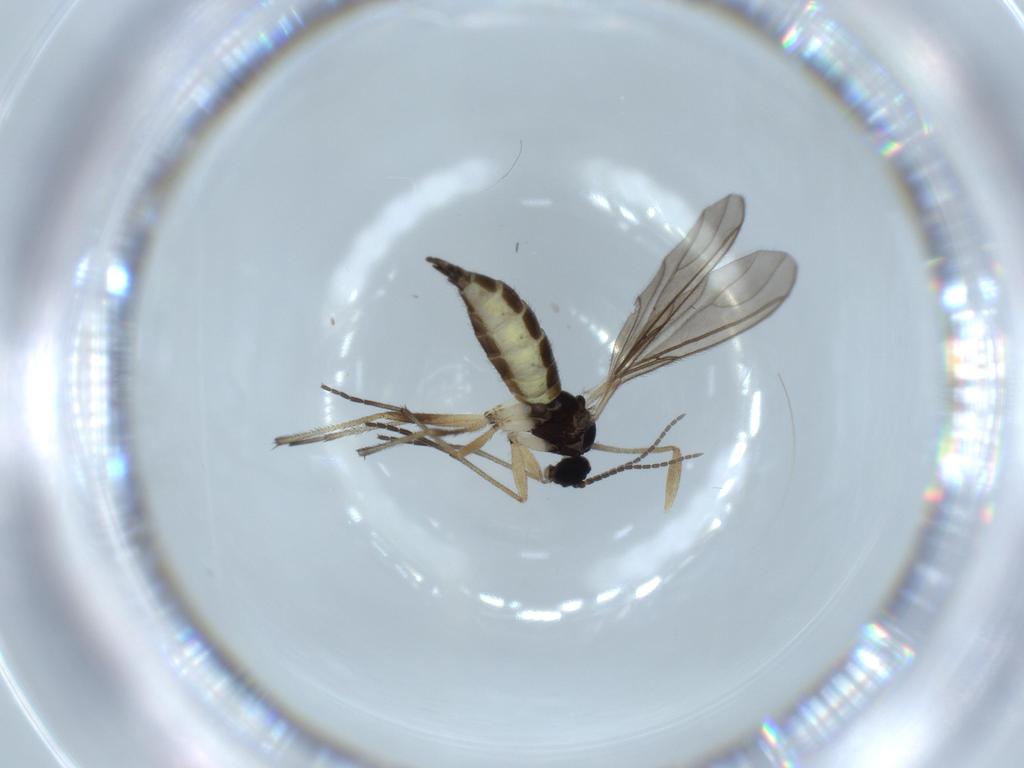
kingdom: Animalia
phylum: Arthropoda
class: Insecta
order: Diptera
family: Sciaridae
